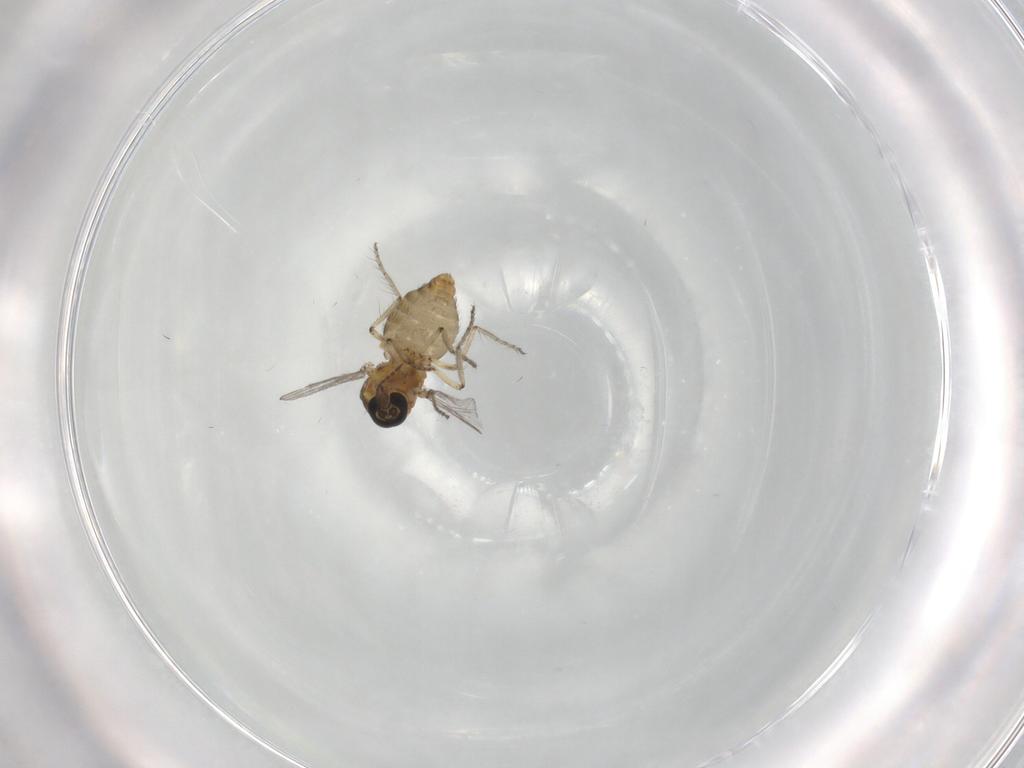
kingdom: Animalia
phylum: Arthropoda
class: Insecta
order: Diptera
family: Ceratopogonidae
